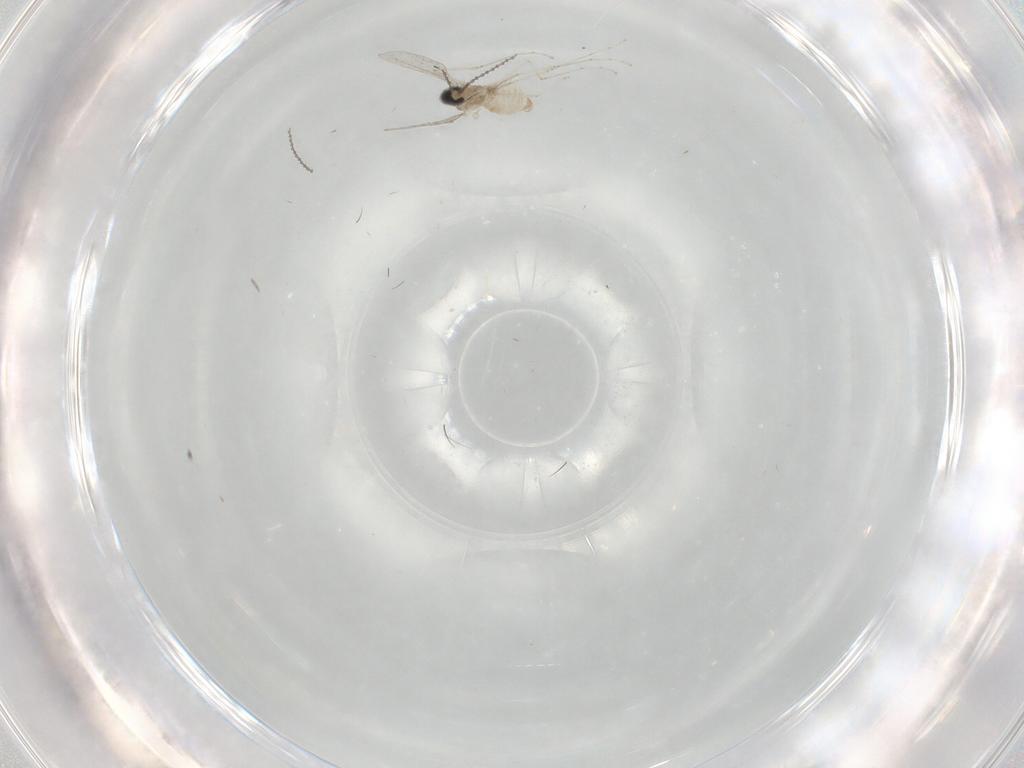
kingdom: Animalia
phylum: Arthropoda
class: Insecta
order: Diptera
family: Cecidomyiidae
